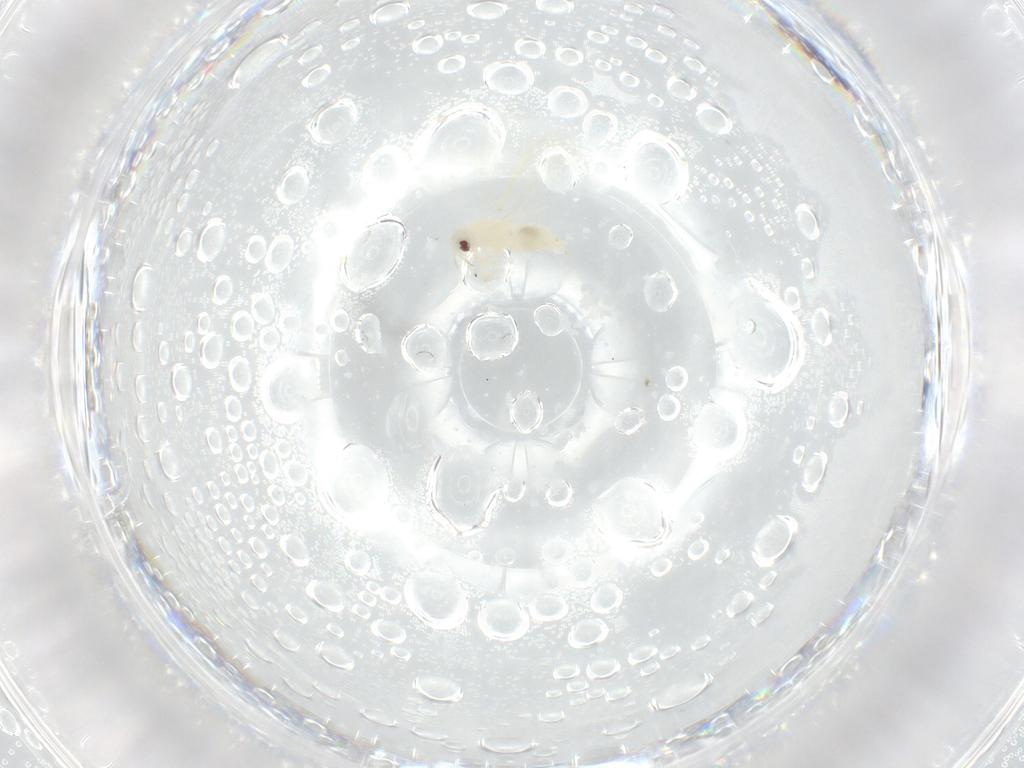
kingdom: Animalia
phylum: Arthropoda
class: Insecta
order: Hemiptera
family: Aleyrodidae
